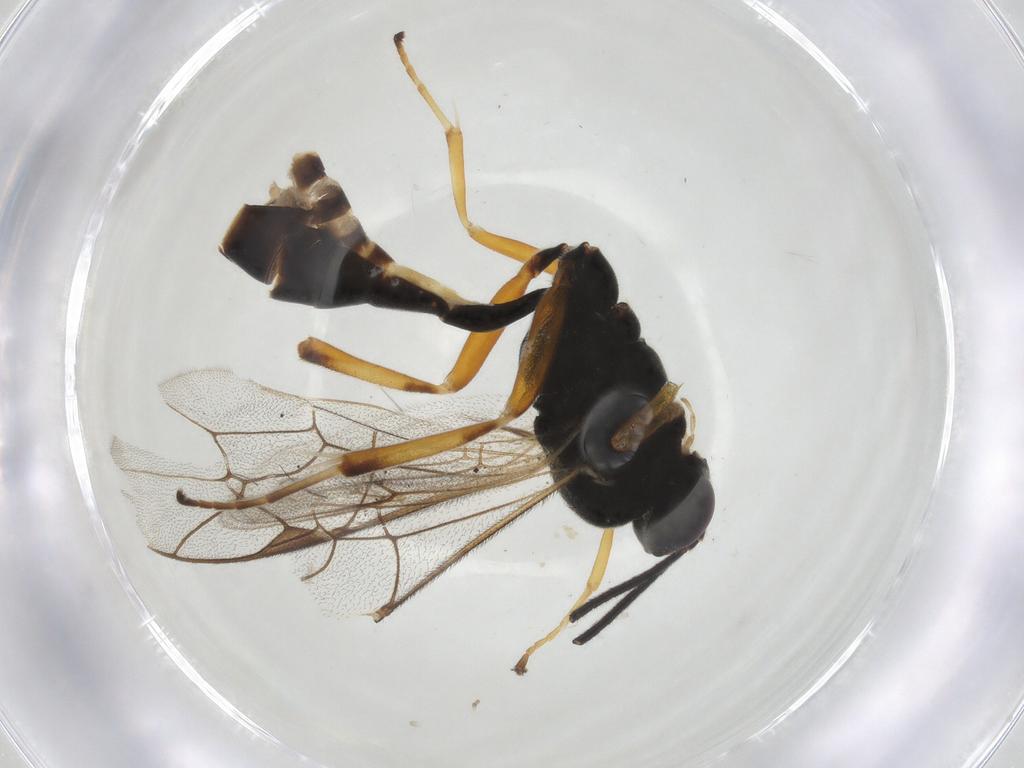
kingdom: Animalia
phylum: Arthropoda
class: Insecta
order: Hymenoptera
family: Ichneumonidae
